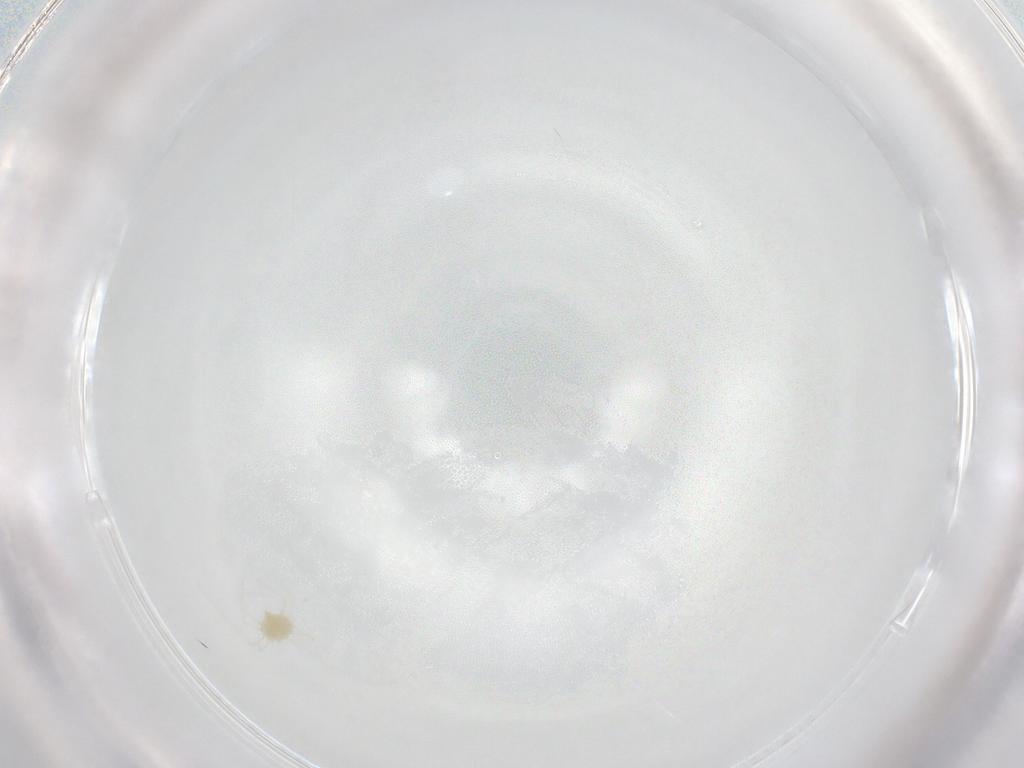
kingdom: Animalia
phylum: Arthropoda
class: Arachnida
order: Trombidiformes
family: Tetranychidae
